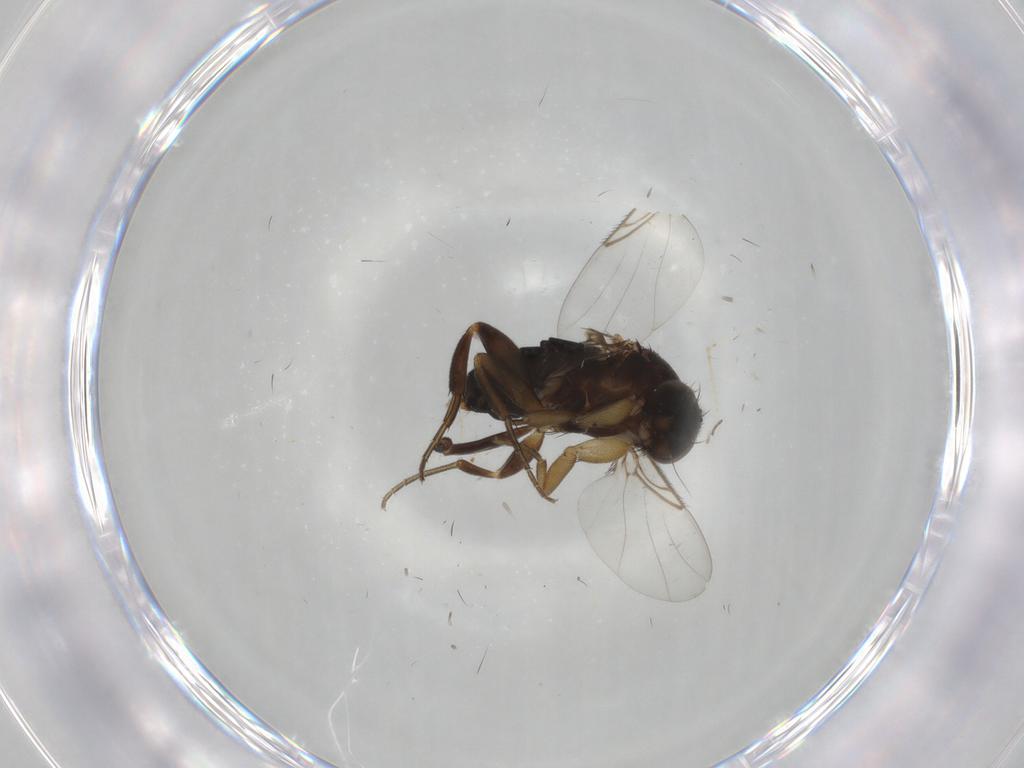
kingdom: Animalia
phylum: Arthropoda
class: Insecta
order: Diptera
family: Phoridae
